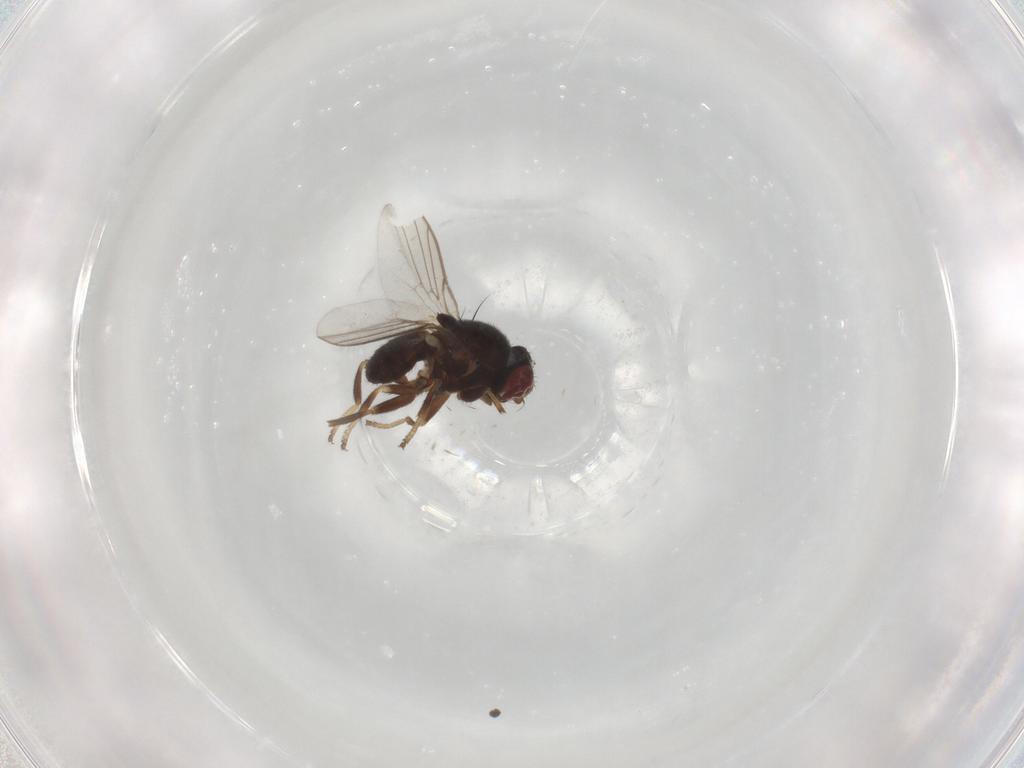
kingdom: Animalia
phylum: Arthropoda
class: Insecta
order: Diptera
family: Chloropidae
